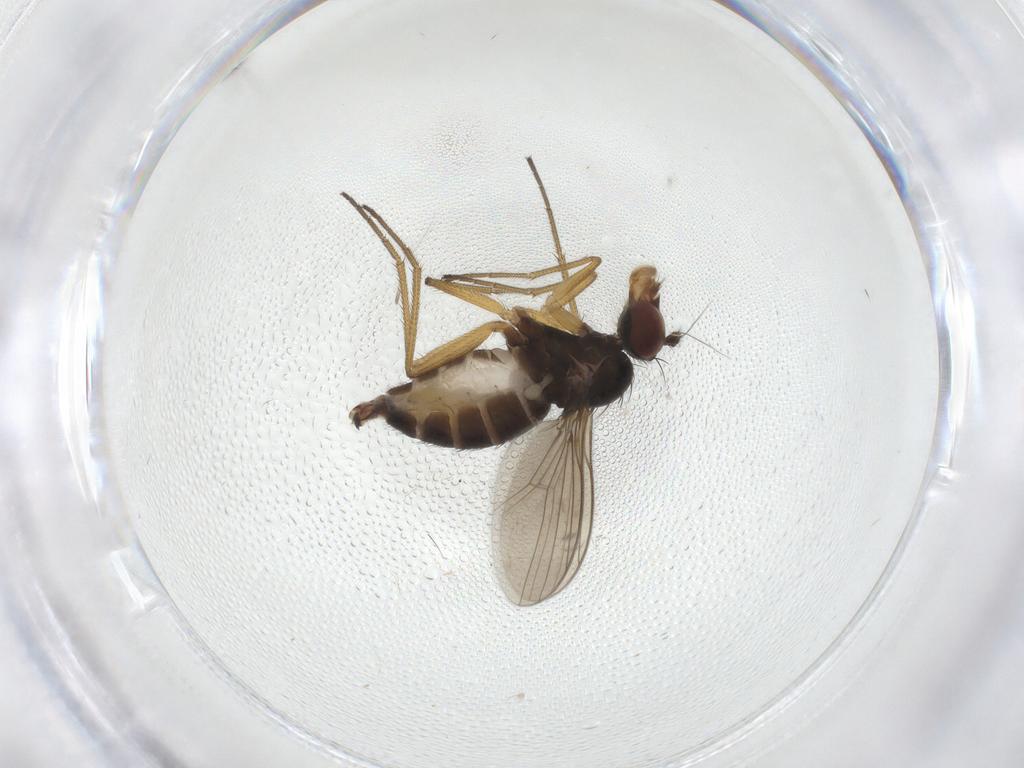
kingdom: Animalia
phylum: Arthropoda
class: Insecta
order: Diptera
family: Dolichopodidae
